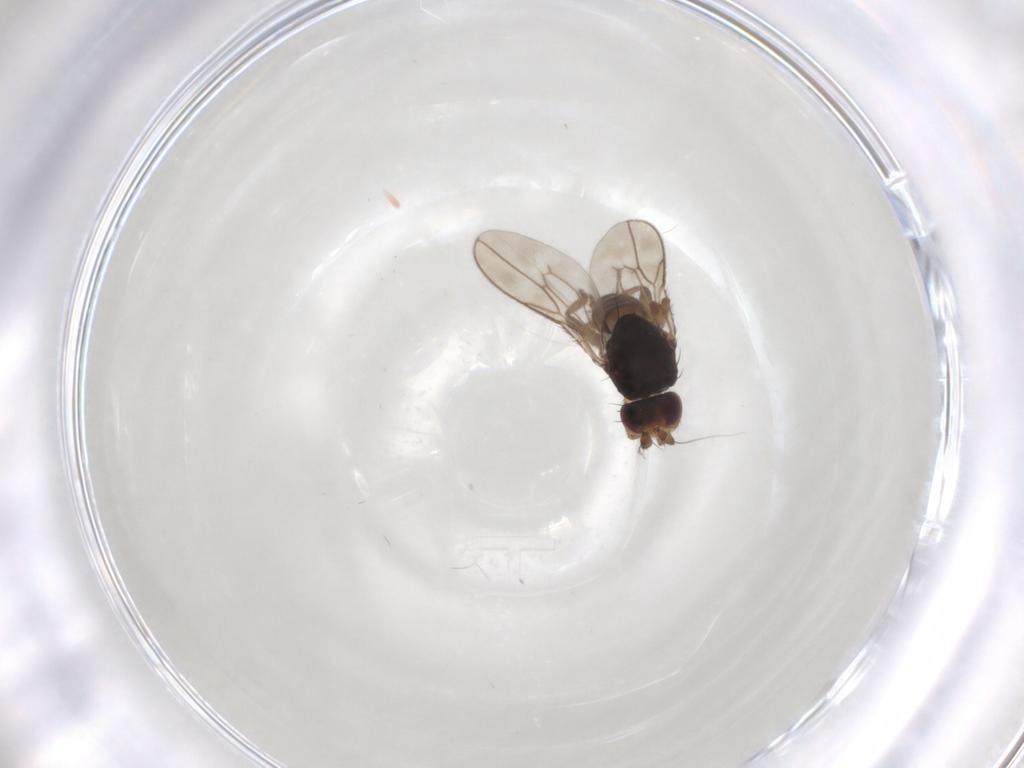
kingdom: Animalia
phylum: Arthropoda
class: Insecta
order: Diptera
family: Sphaeroceridae
